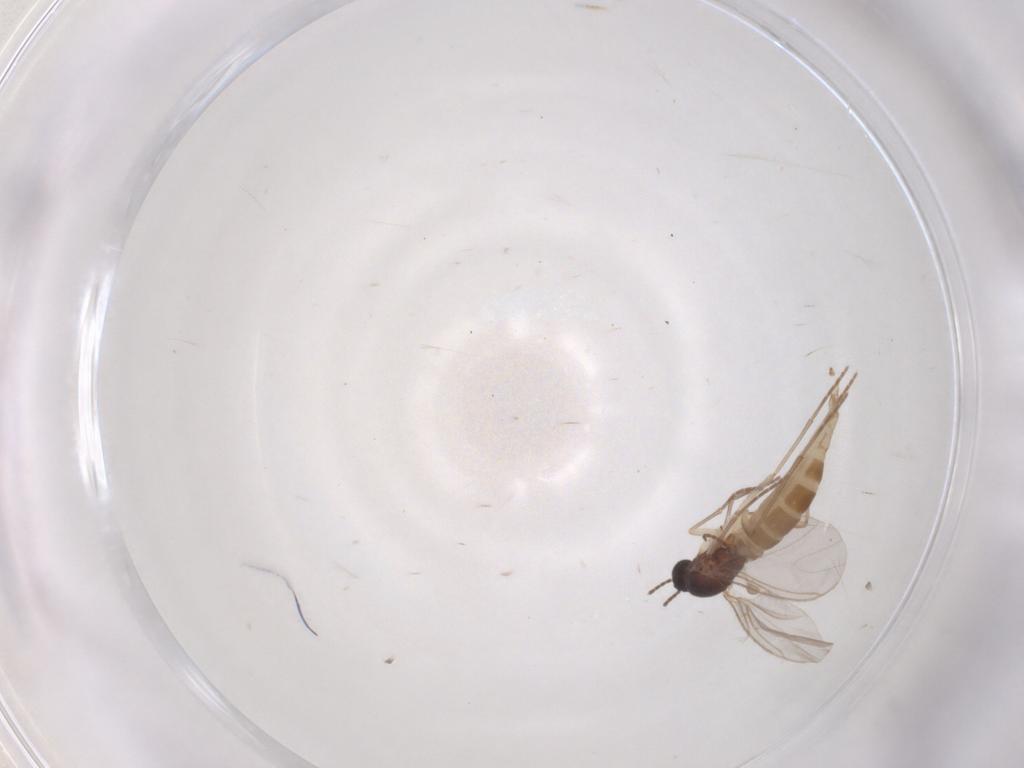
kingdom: Animalia
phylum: Arthropoda
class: Insecta
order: Diptera
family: Sciaridae
